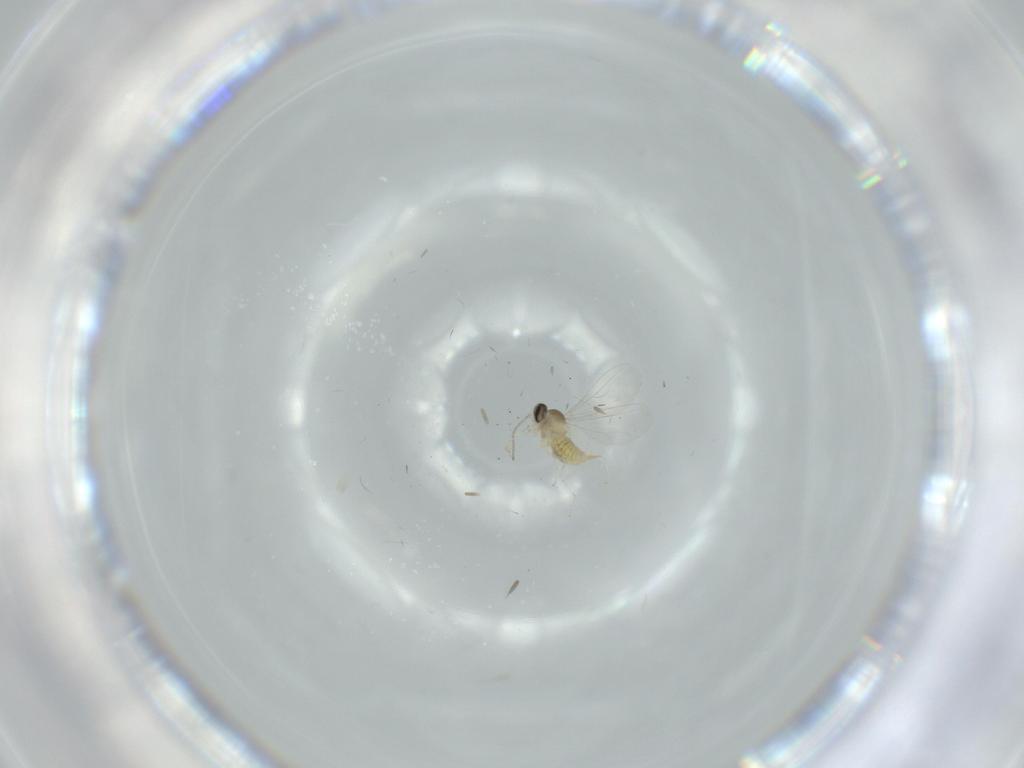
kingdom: Animalia
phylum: Arthropoda
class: Insecta
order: Diptera
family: Cecidomyiidae
